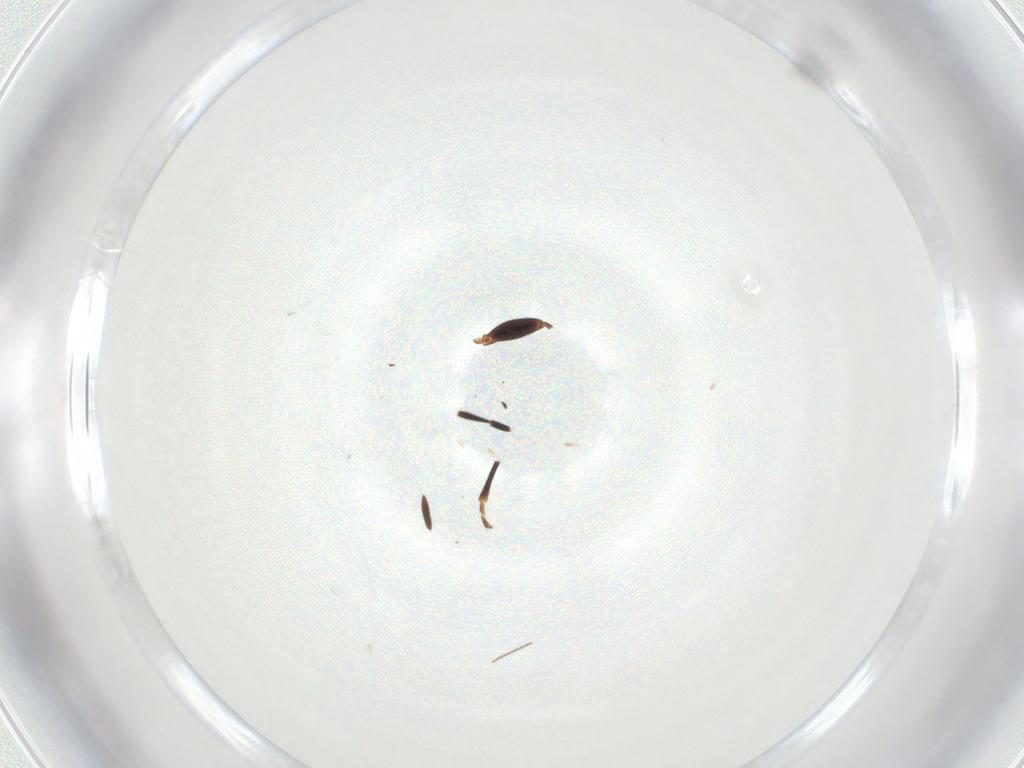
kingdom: Animalia
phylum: Arthropoda
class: Insecta
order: Hemiptera
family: Rhyparochromidae
